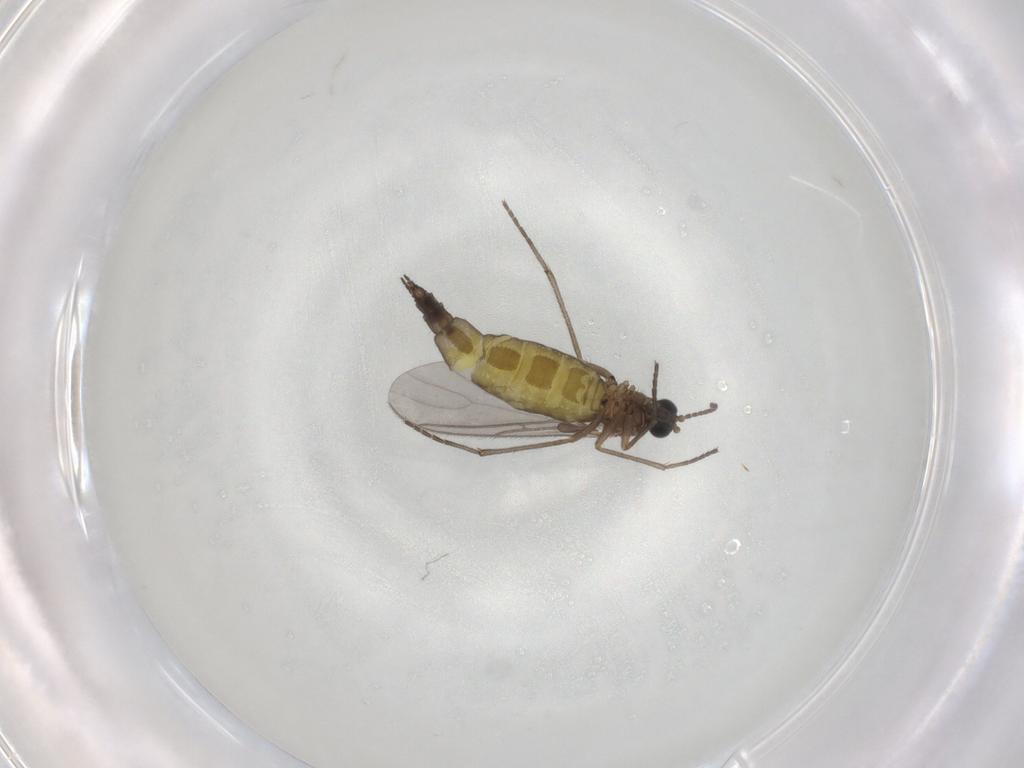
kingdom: Animalia
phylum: Arthropoda
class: Insecta
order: Diptera
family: Sciaridae
